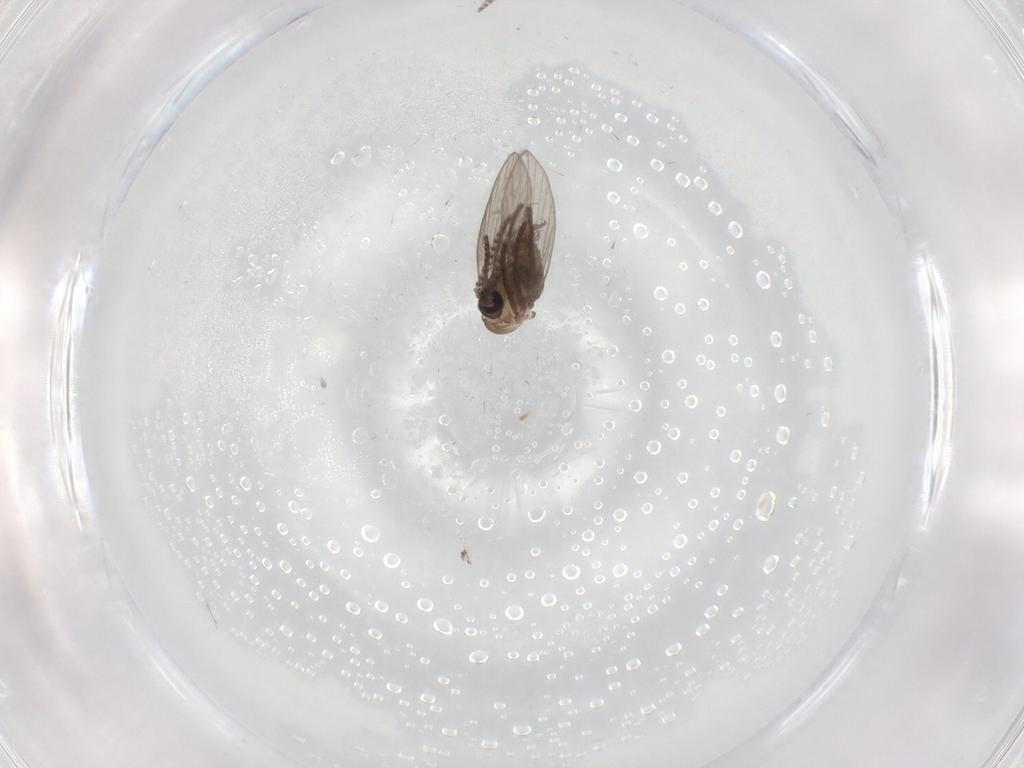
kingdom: Animalia
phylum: Arthropoda
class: Insecta
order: Diptera
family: Psychodidae
